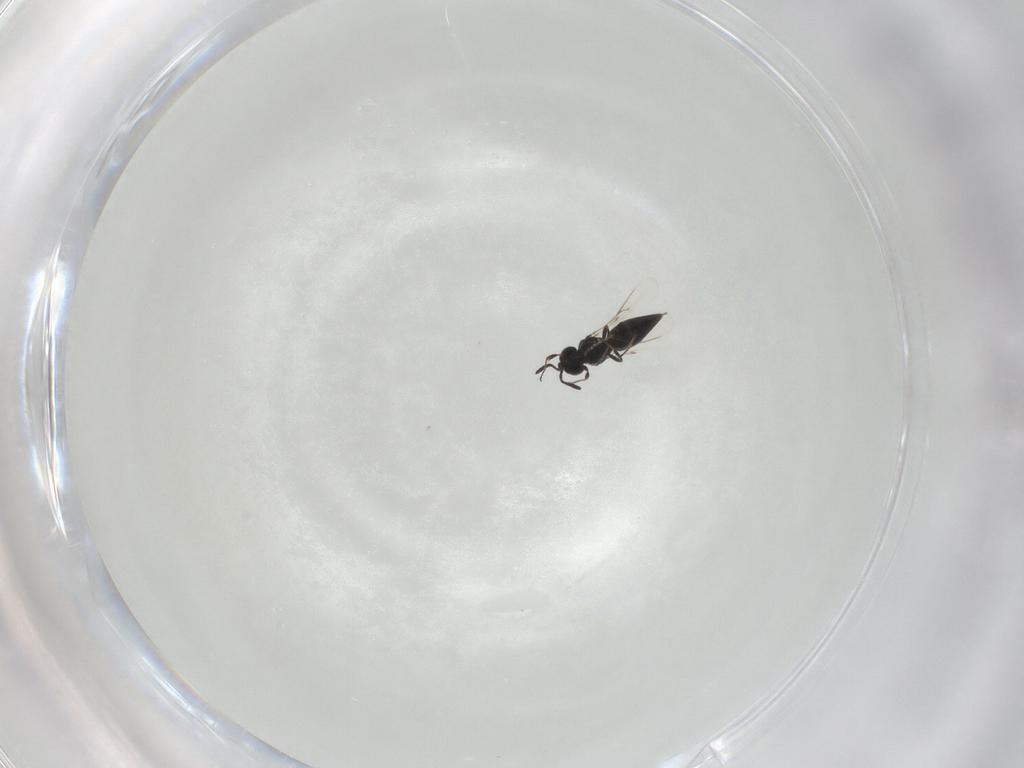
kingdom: Animalia
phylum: Arthropoda
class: Insecta
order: Hymenoptera
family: Scelionidae
